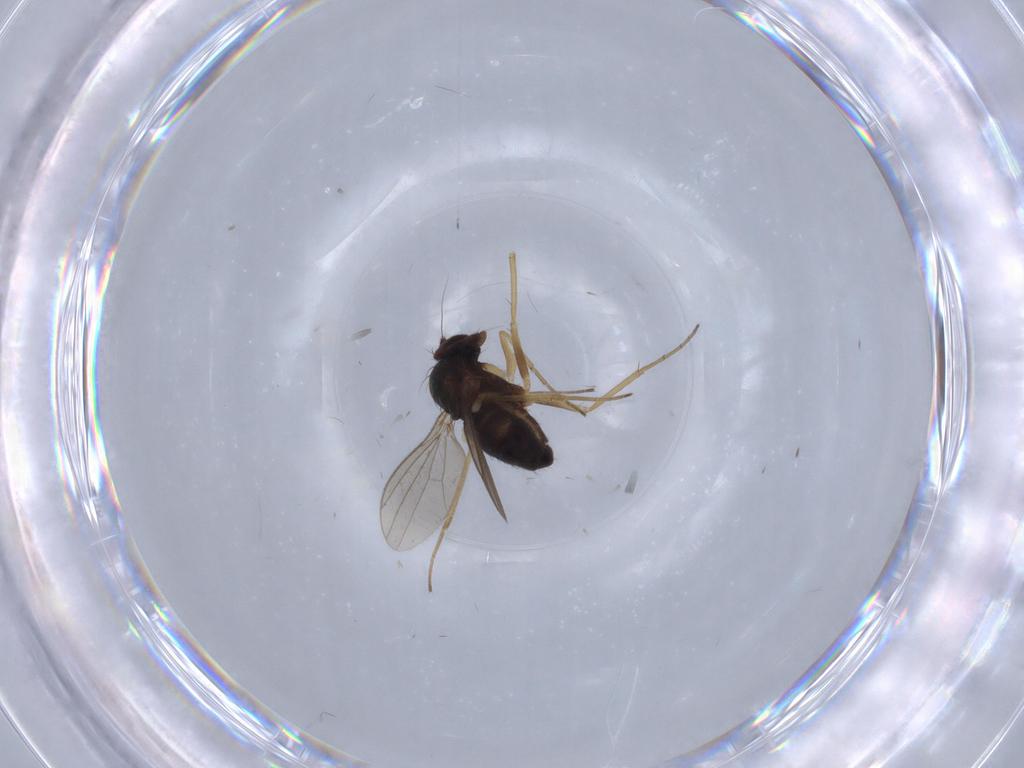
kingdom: Animalia
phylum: Arthropoda
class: Insecta
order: Diptera
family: Dolichopodidae
